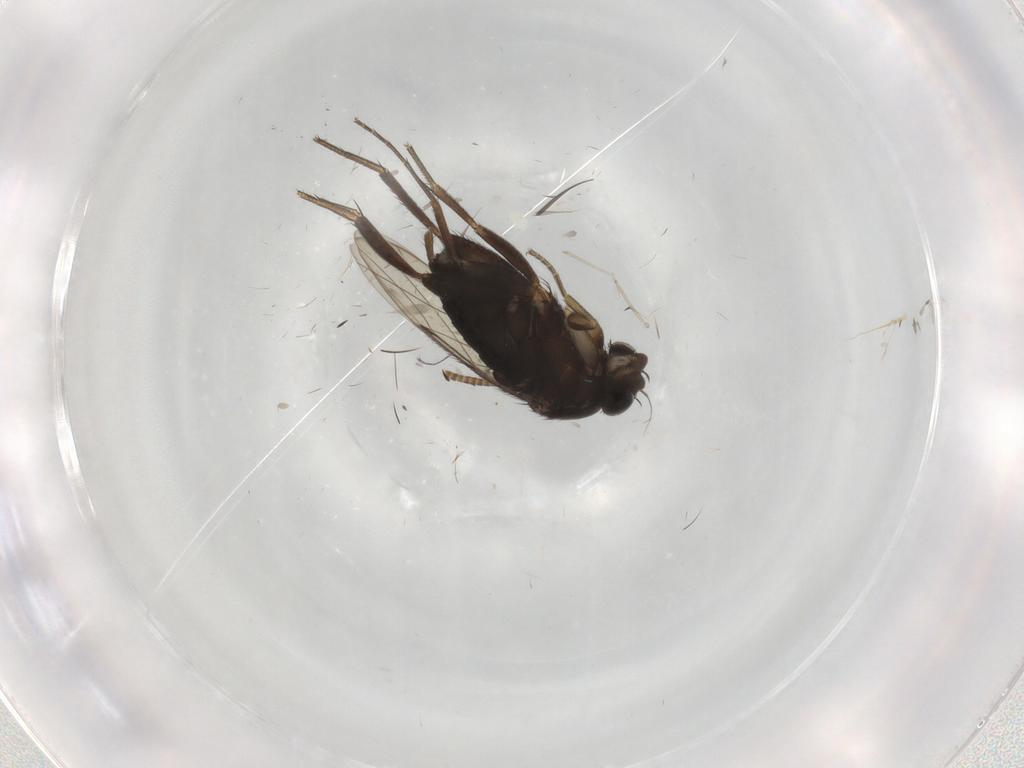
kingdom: Animalia
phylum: Arthropoda
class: Insecta
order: Diptera
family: Phoridae
